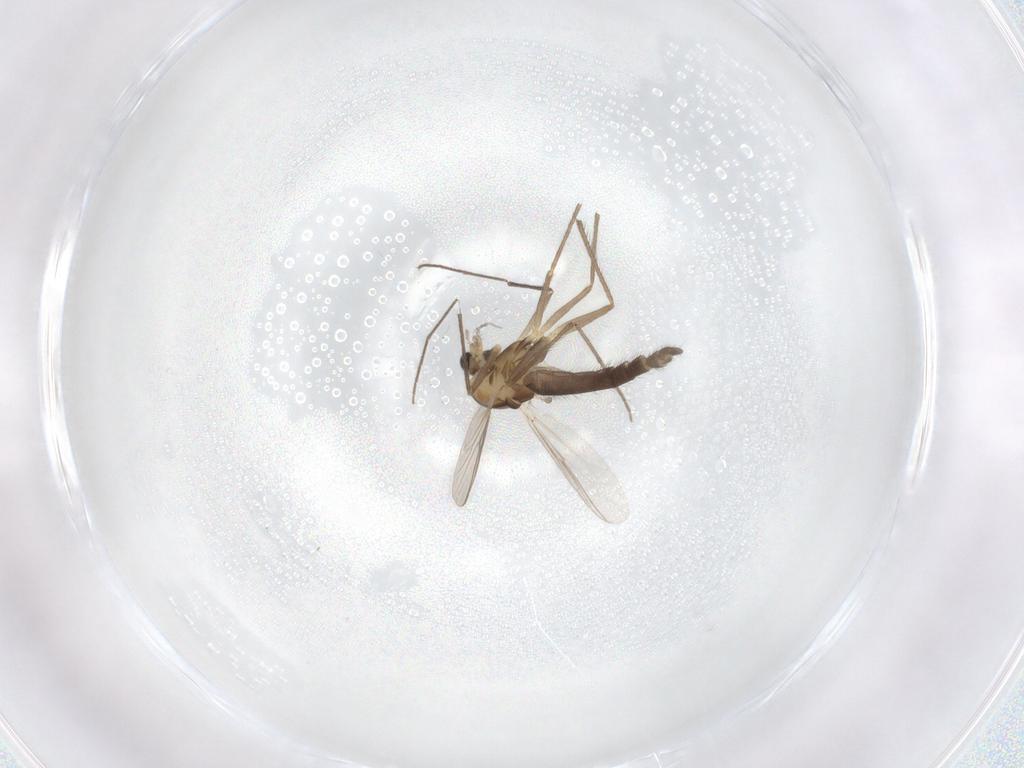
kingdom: Animalia
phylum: Arthropoda
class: Insecta
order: Diptera
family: Chironomidae
